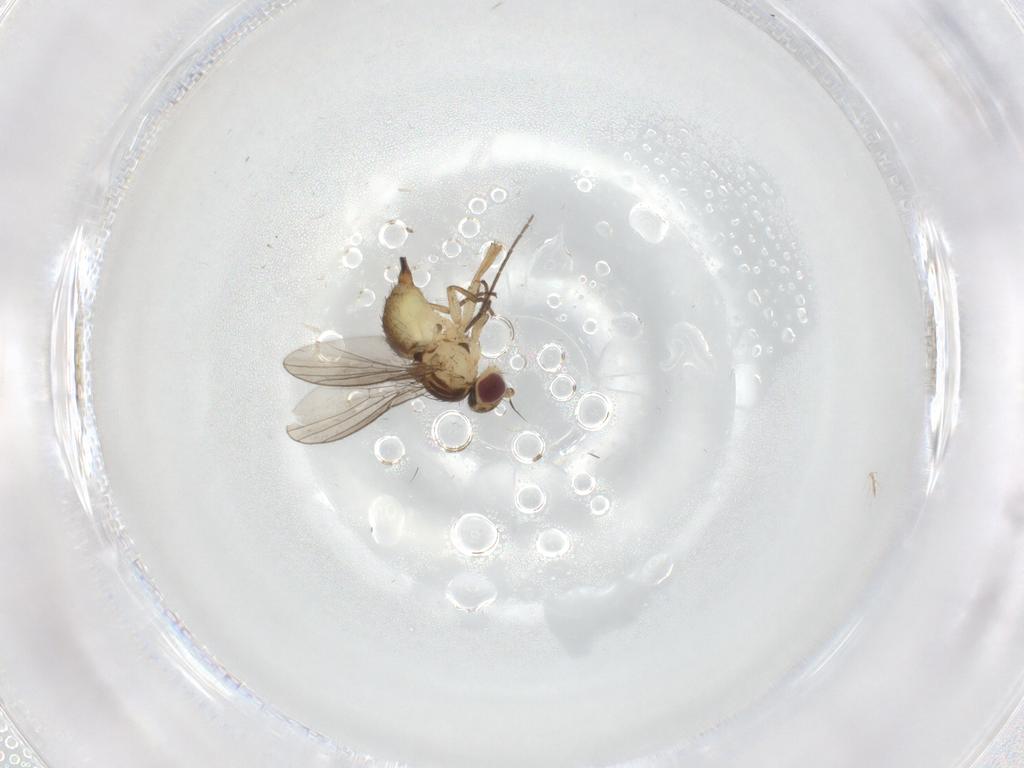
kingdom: Animalia
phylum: Arthropoda
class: Insecta
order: Diptera
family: Agromyzidae
